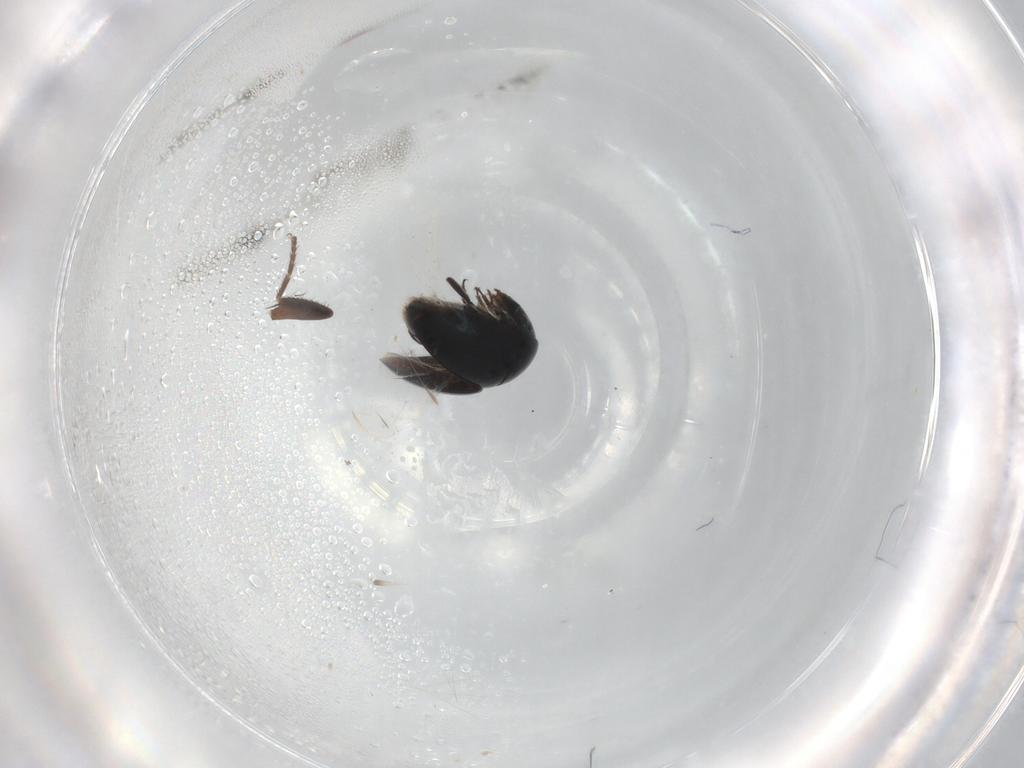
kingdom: Animalia
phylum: Arthropoda
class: Insecta
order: Coleoptera
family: Cybocephalidae
